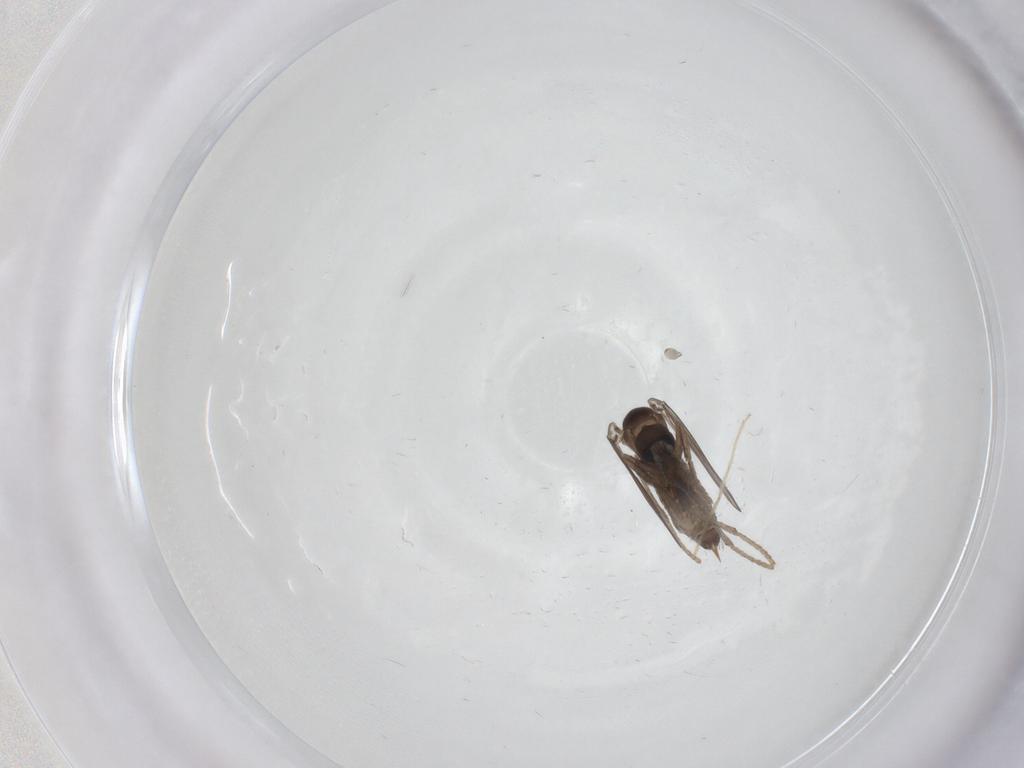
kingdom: Animalia
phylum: Arthropoda
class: Insecta
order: Diptera
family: Psychodidae
